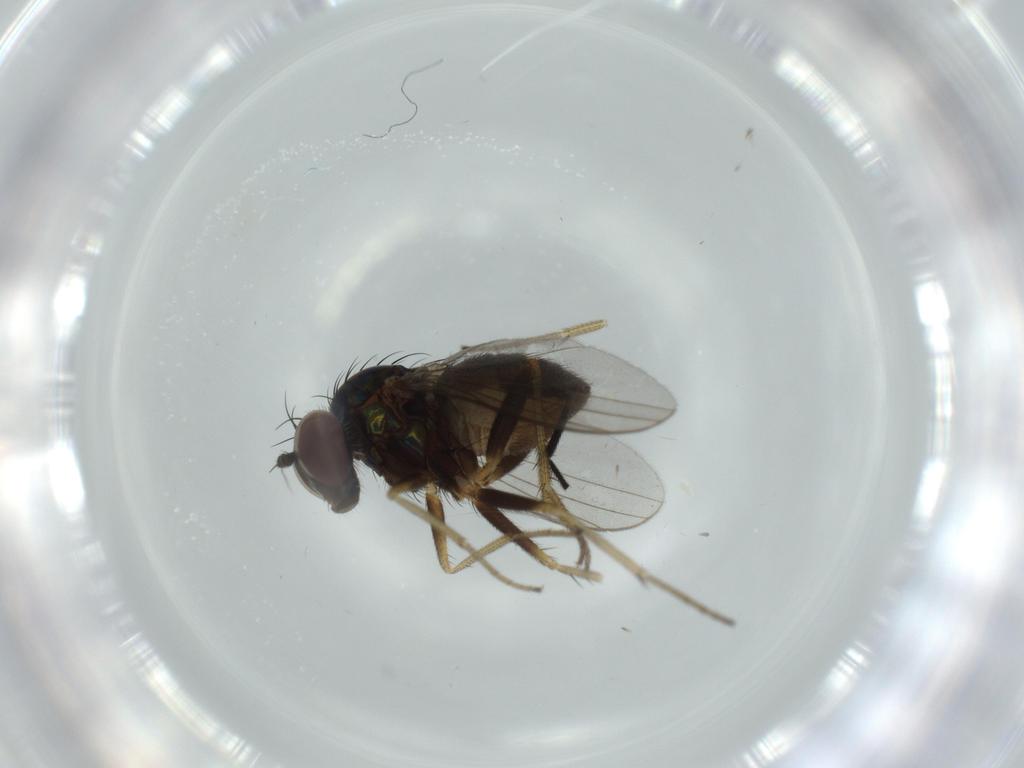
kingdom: Animalia
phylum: Arthropoda
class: Insecta
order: Diptera
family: Milichiidae
